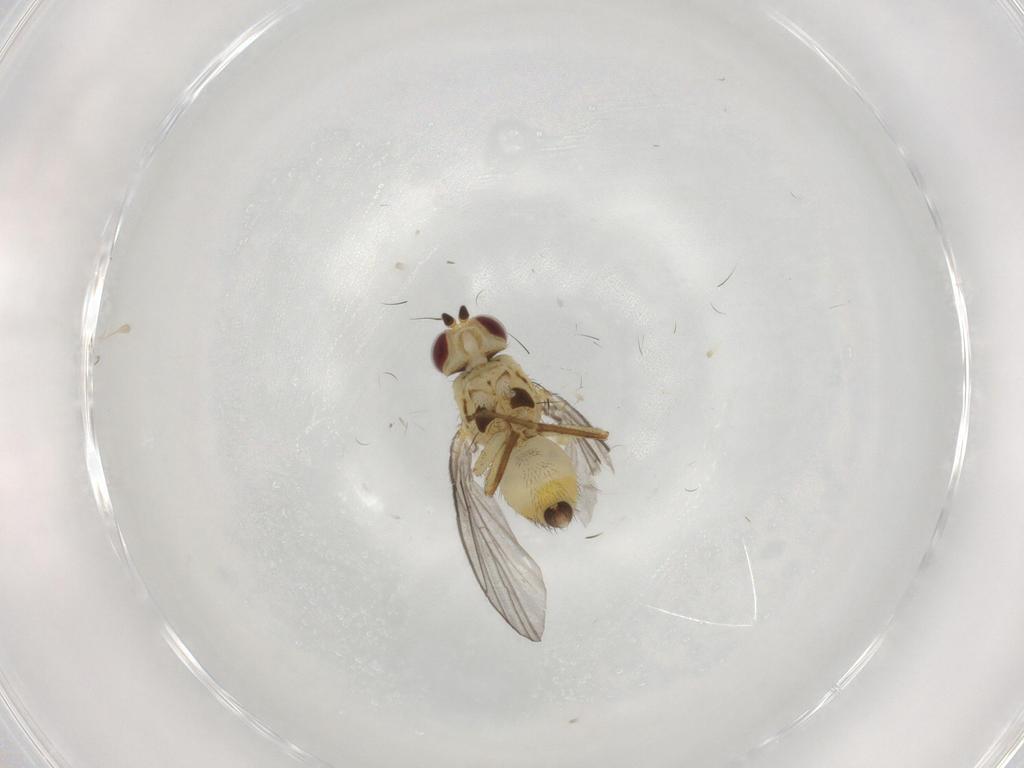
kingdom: Animalia
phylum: Arthropoda
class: Insecta
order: Diptera
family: Agromyzidae
